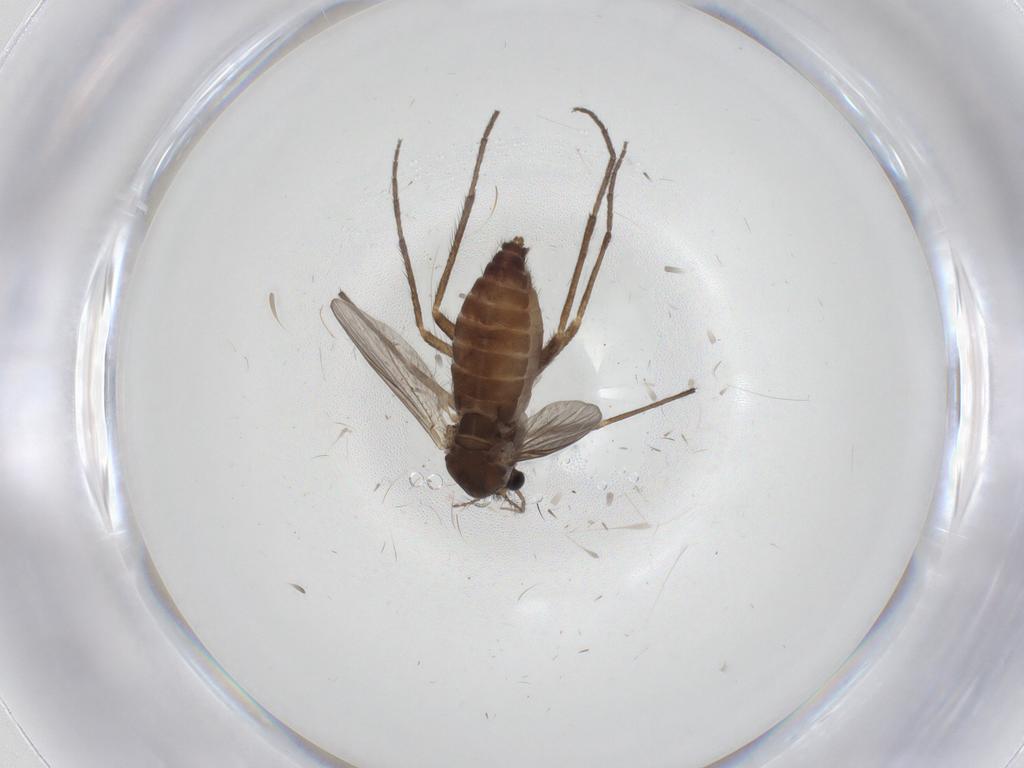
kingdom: Animalia
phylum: Arthropoda
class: Insecta
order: Diptera
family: Chironomidae
